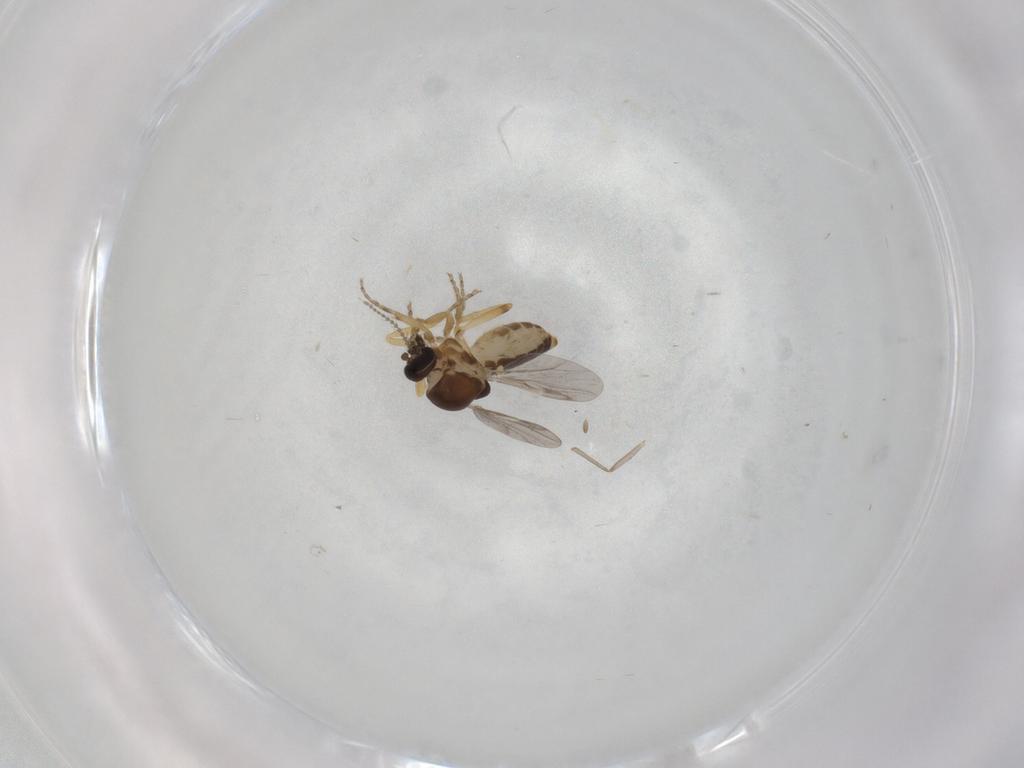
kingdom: Animalia
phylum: Arthropoda
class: Insecta
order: Diptera
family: Ceratopogonidae
